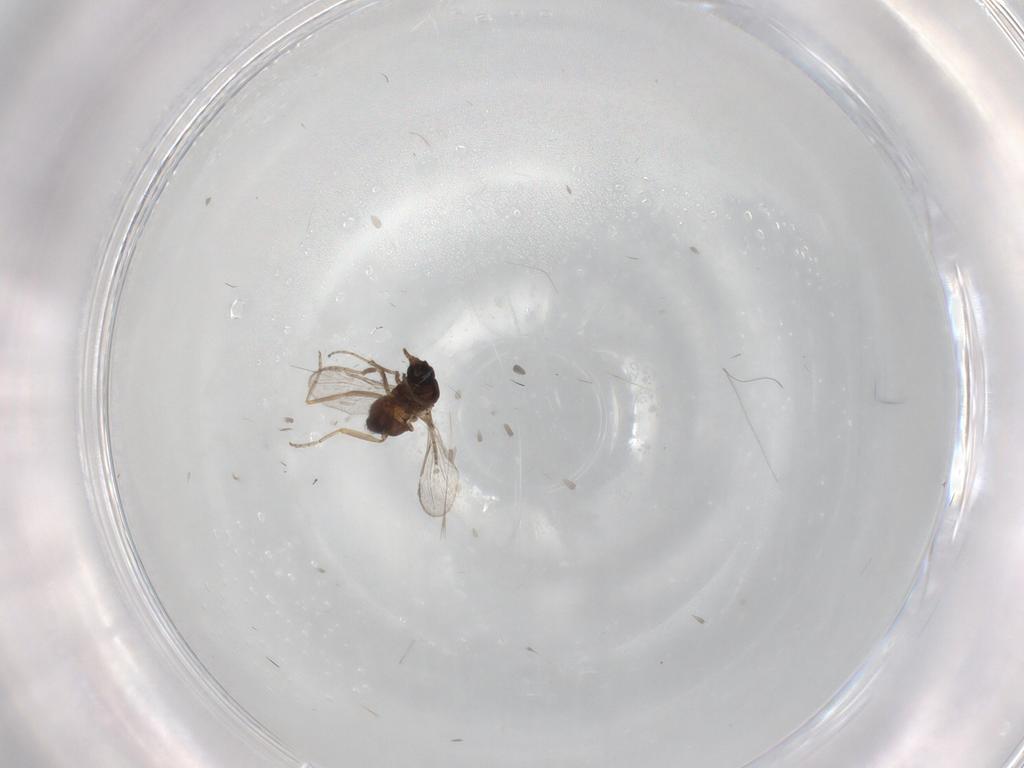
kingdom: Animalia
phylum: Arthropoda
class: Insecta
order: Diptera
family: Ceratopogonidae
